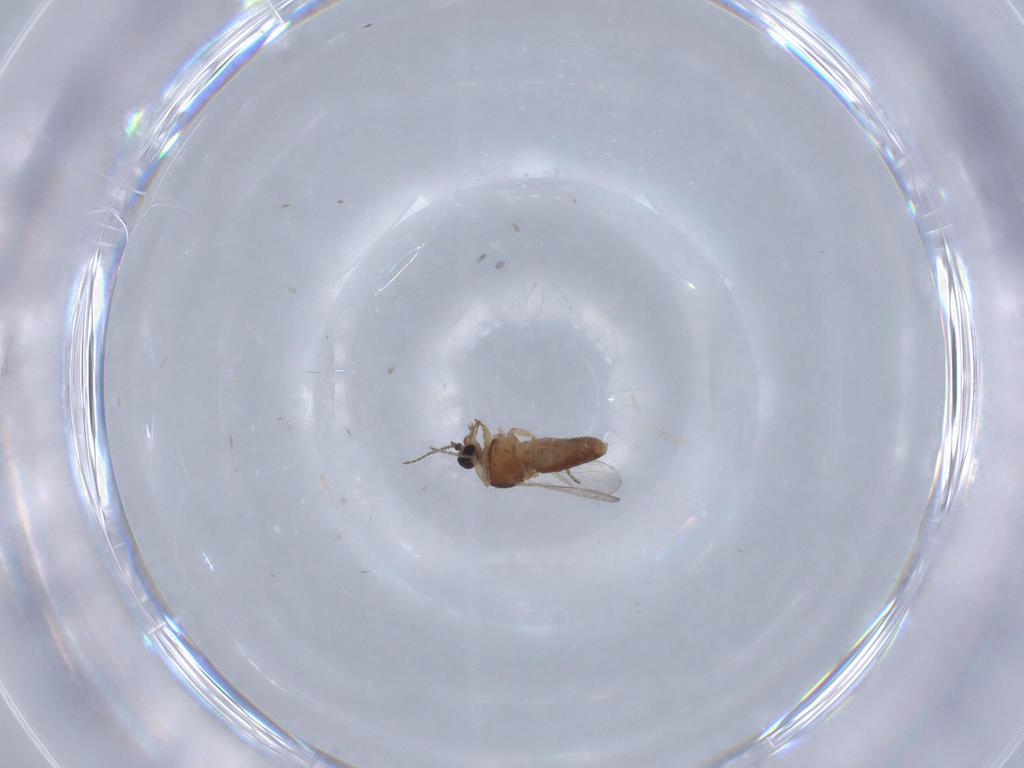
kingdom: Animalia
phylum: Arthropoda
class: Insecta
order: Diptera
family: Ceratopogonidae
